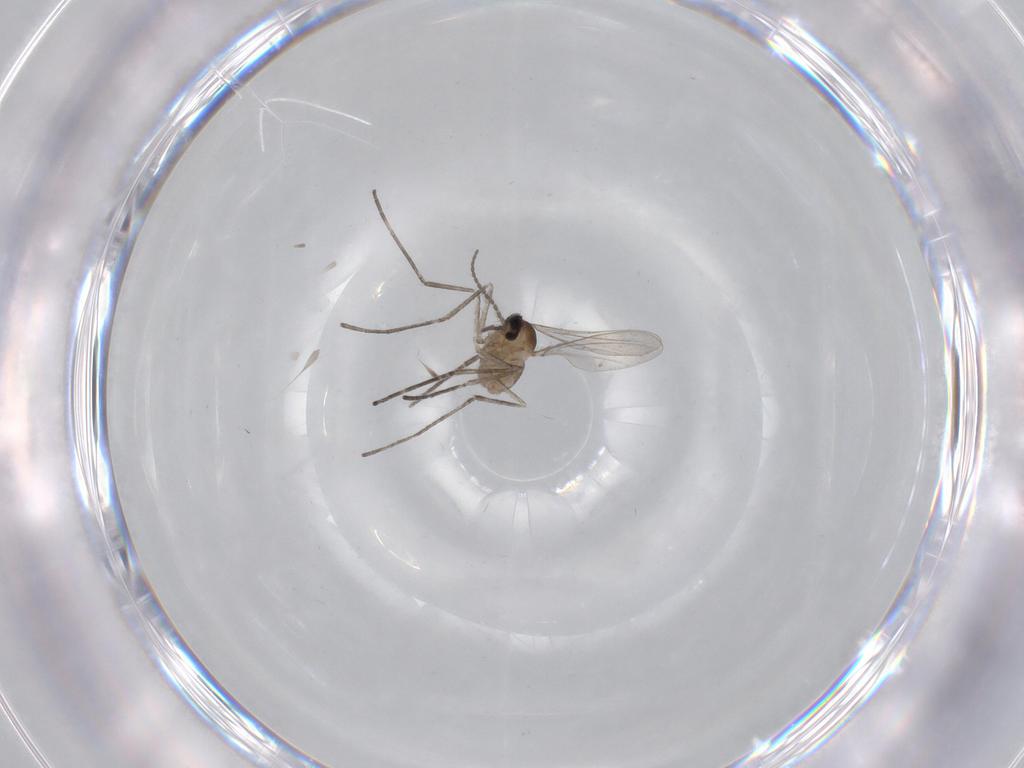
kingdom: Animalia
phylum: Arthropoda
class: Insecta
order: Diptera
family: Cecidomyiidae
